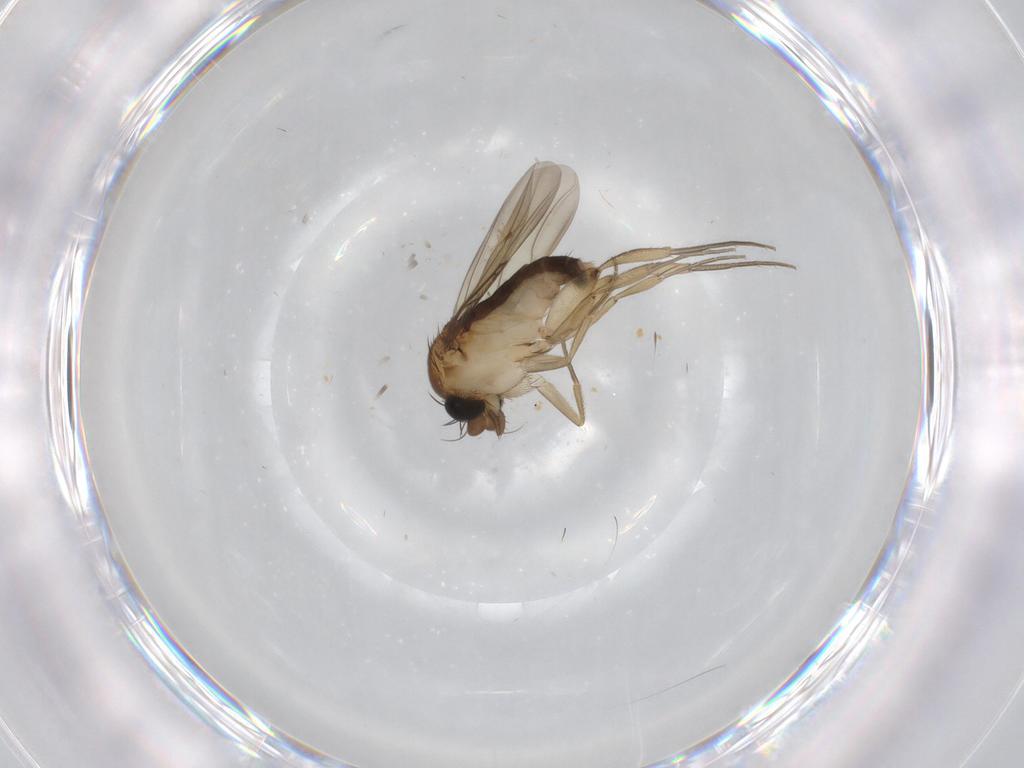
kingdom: Animalia
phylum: Arthropoda
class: Insecta
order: Diptera
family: Phoridae
